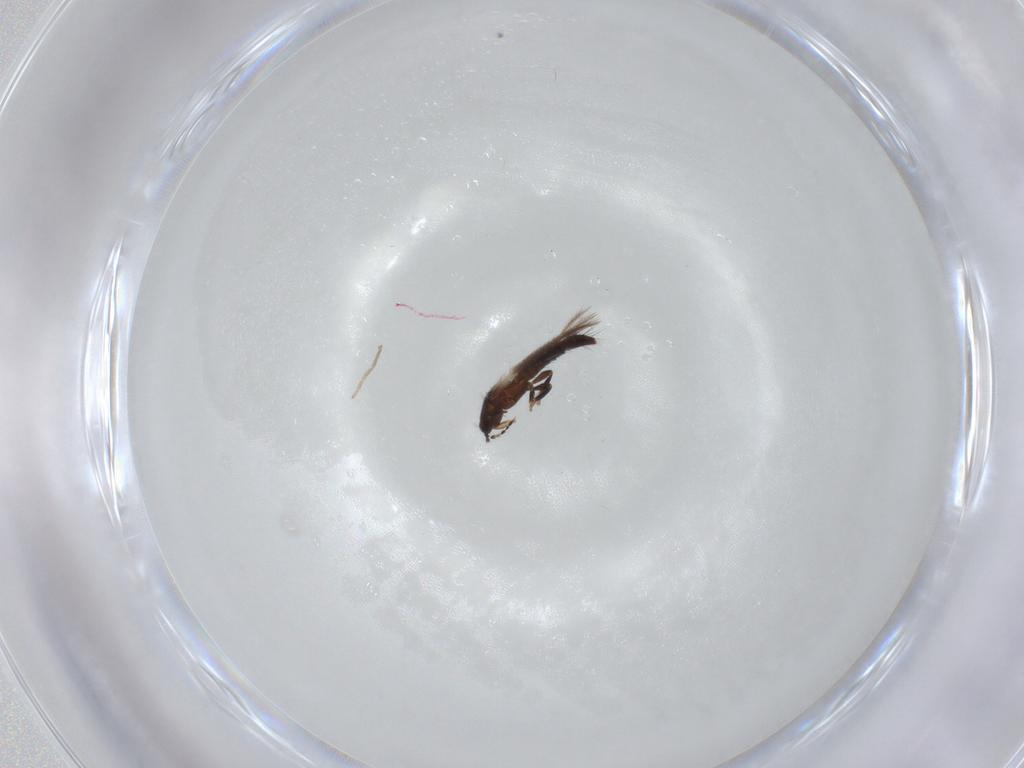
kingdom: Animalia
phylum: Arthropoda
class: Insecta
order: Thysanoptera
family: Thripidae
